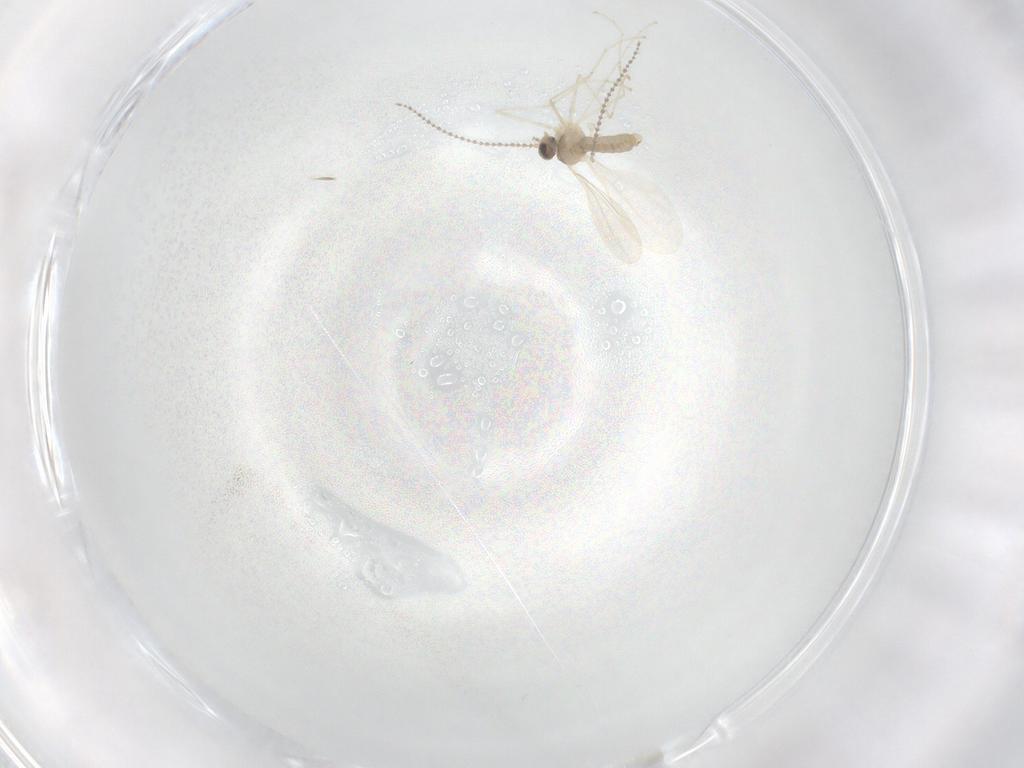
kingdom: Animalia
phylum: Arthropoda
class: Insecta
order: Diptera
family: Cecidomyiidae
